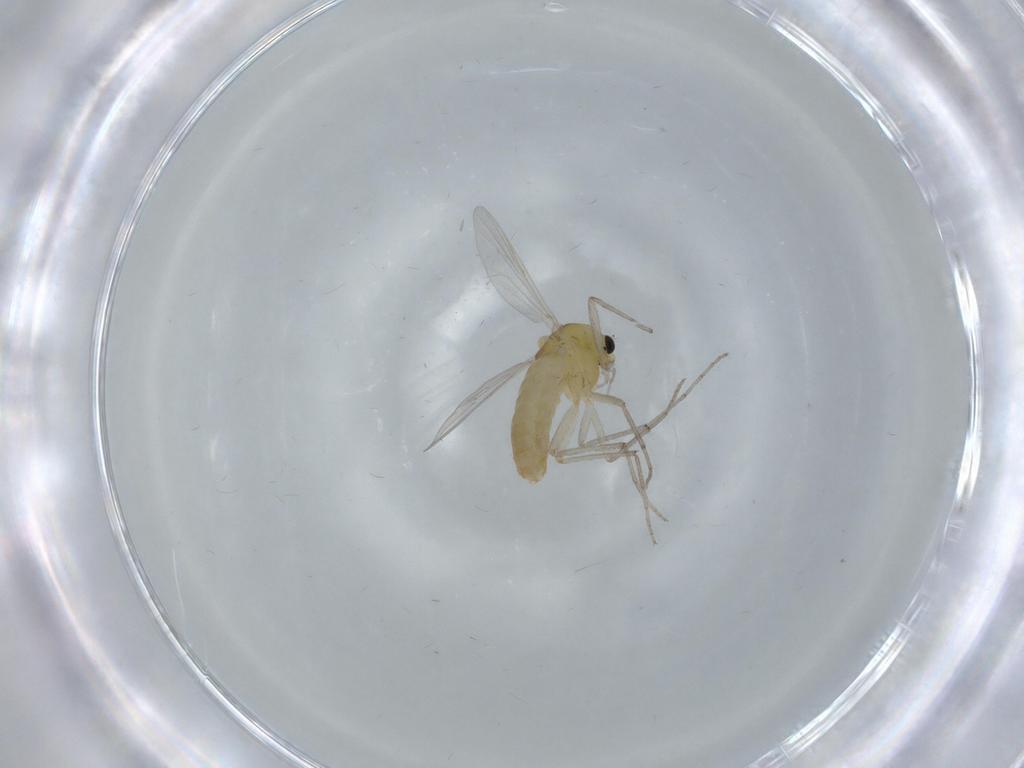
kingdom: Animalia
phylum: Arthropoda
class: Insecta
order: Diptera
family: Chironomidae
